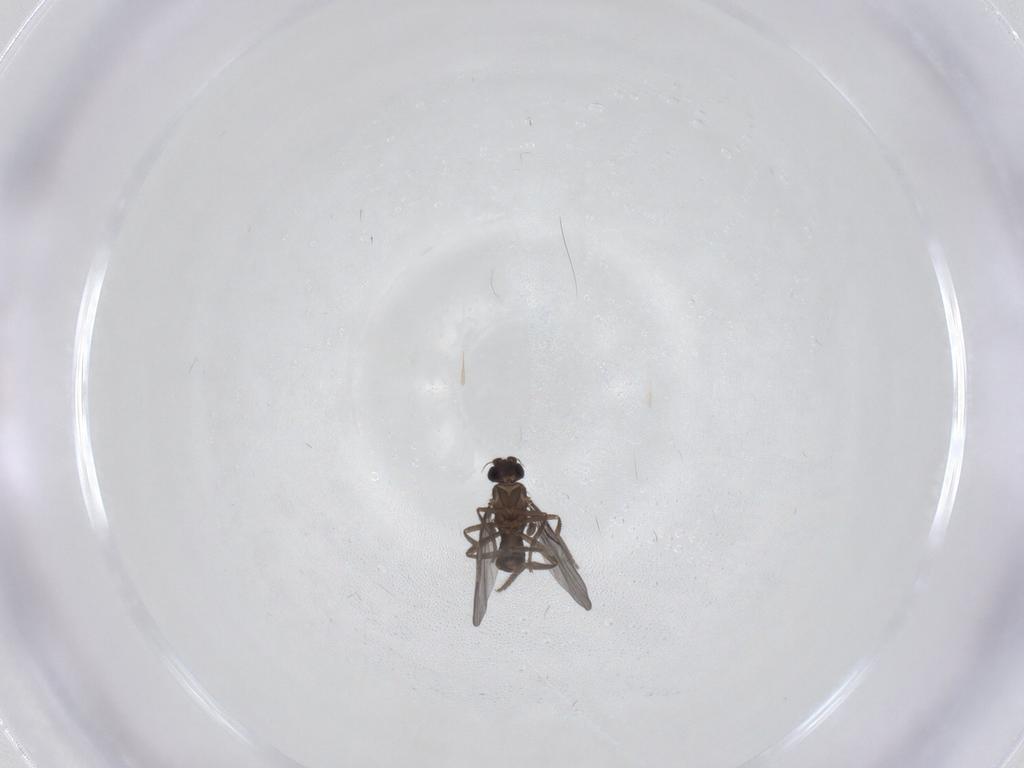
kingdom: Animalia
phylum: Arthropoda
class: Insecta
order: Diptera
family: Phoridae
